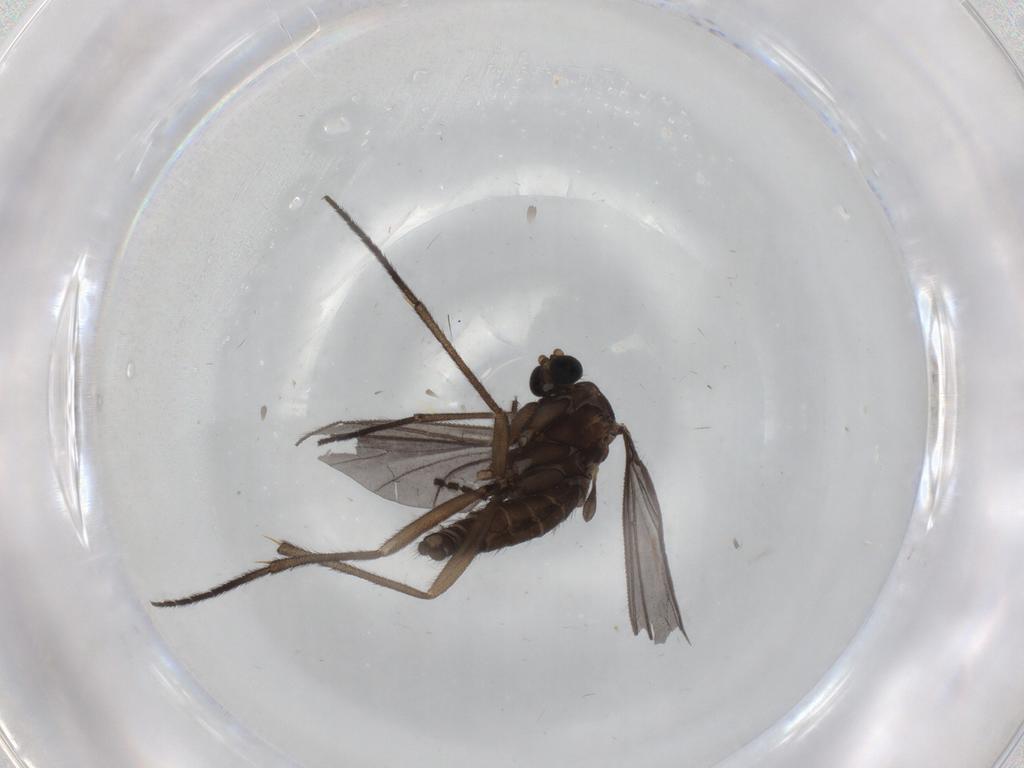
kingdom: Animalia
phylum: Arthropoda
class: Insecta
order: Diptera
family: Sciaridae
